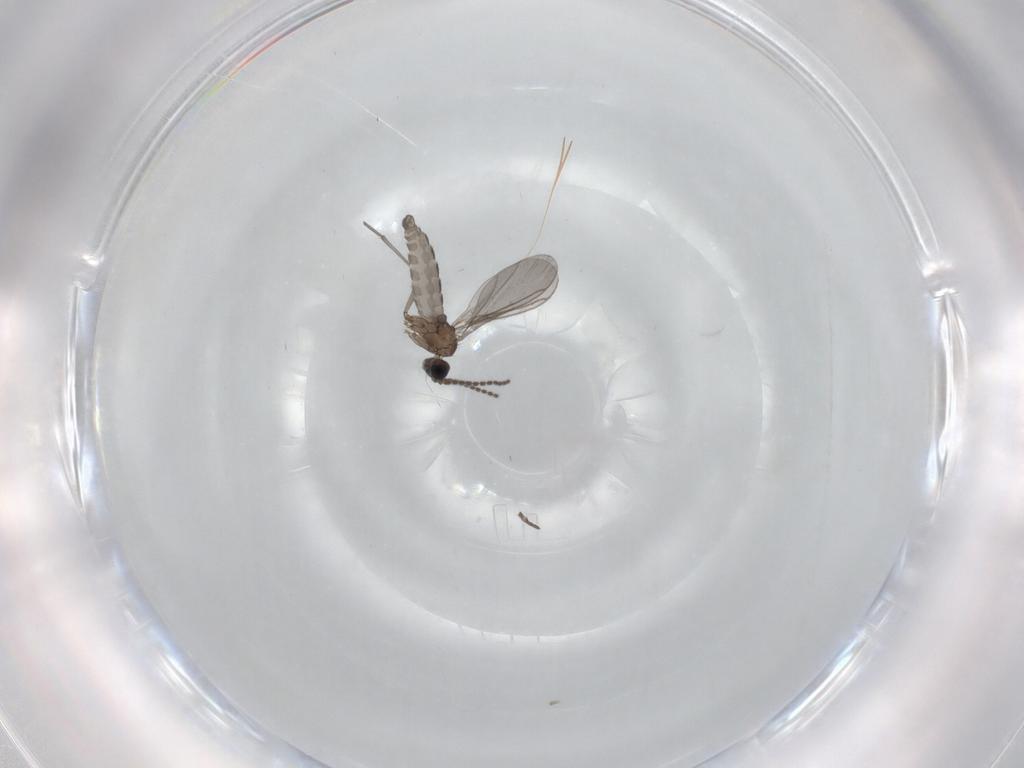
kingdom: Animalia
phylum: Arthropoda
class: Insecta
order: Diptera
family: Sciaridae
